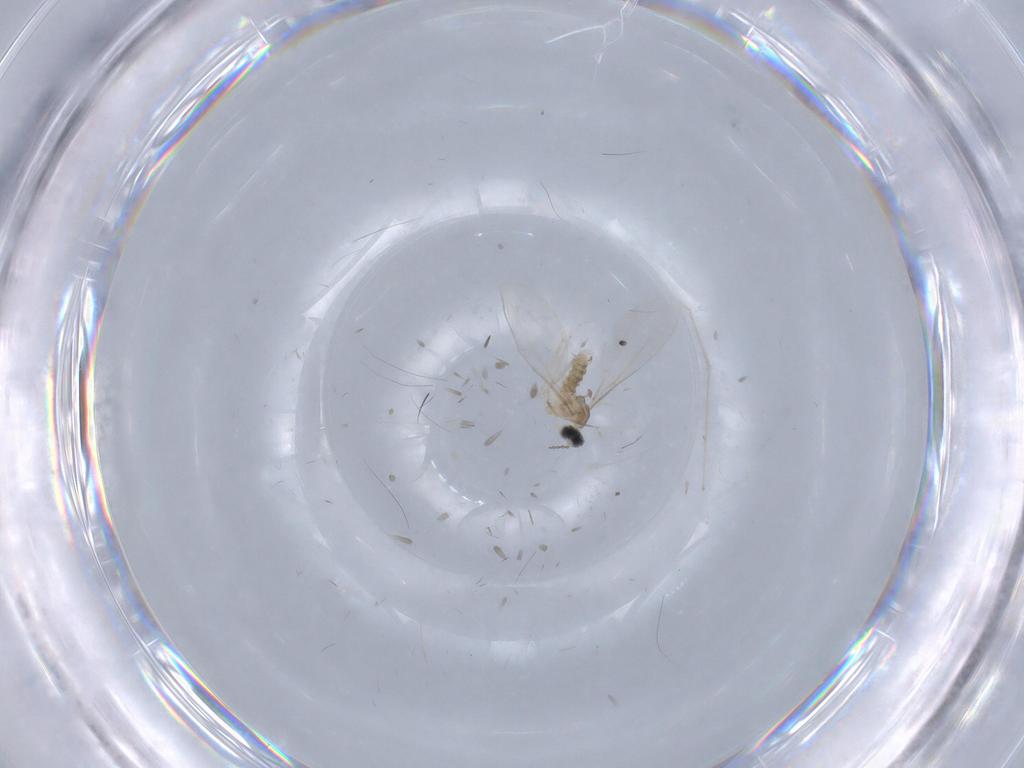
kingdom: Animalia
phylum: Arthropoda
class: Insecta
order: Diptera
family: Chironomidae
